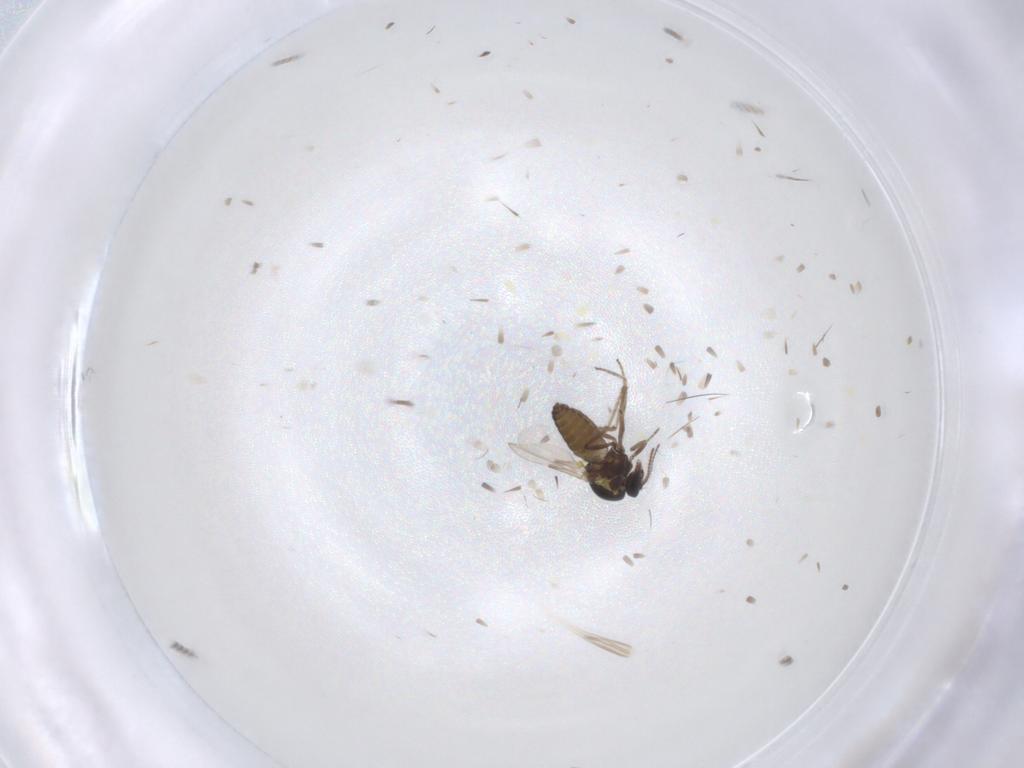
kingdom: Animalia
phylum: Arthropoda
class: Insecta
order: Diptera
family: Ceratopogonidae
